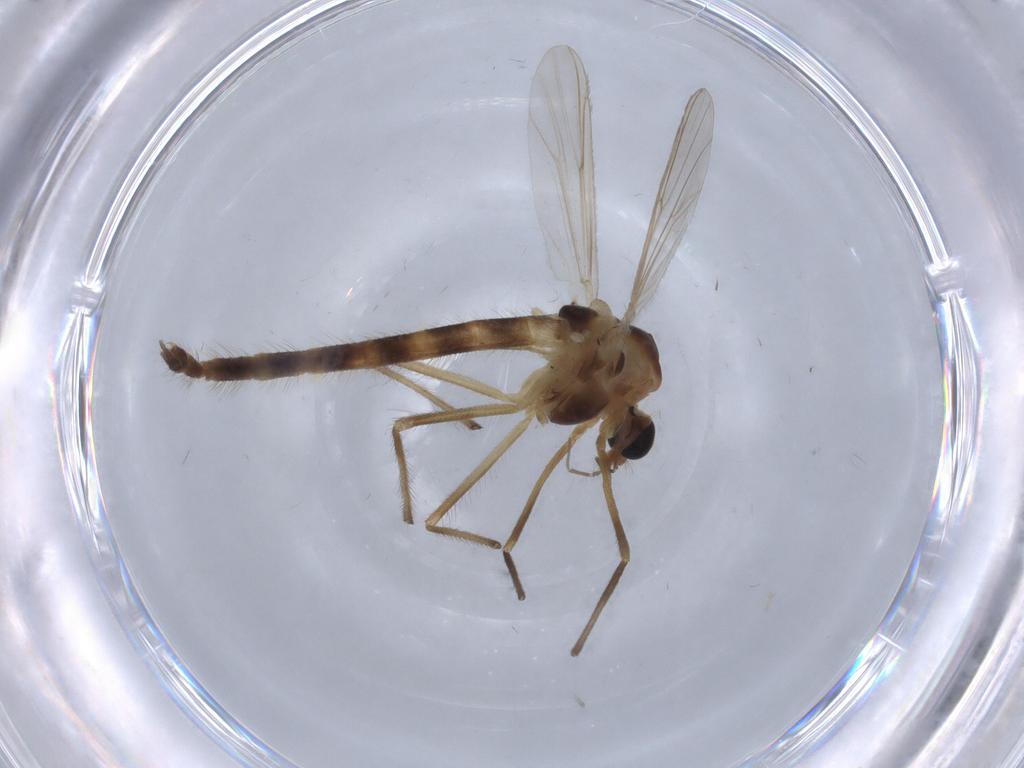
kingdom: Animalia
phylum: Arthropoda
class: Insecta
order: Diptera
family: Chironomidae
